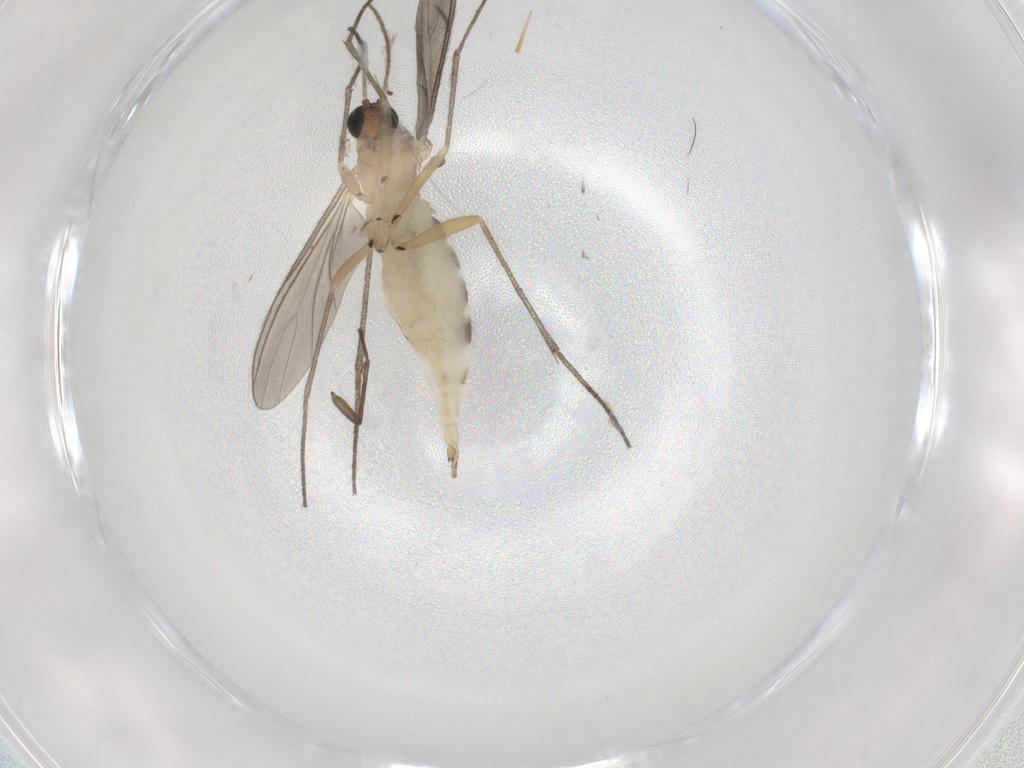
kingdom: Animalia
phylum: Arthropoda
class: Insecta
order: Diptera
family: Sciaridae
